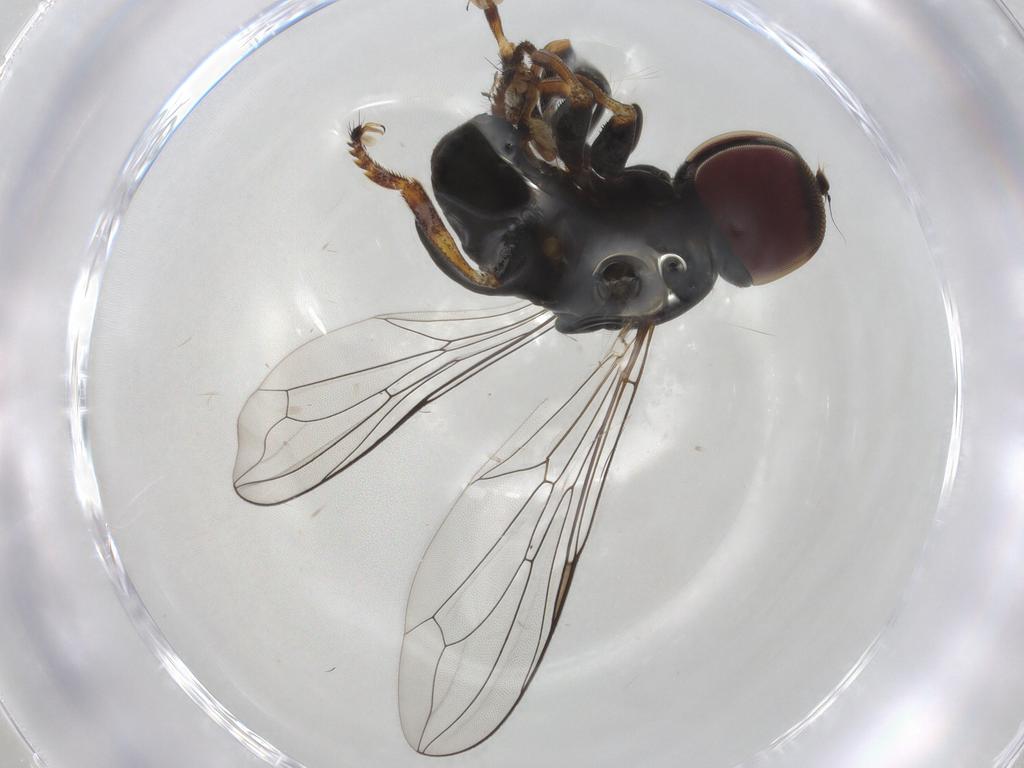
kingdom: Animalia
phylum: Arthropoda
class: Insecta
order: Diptera
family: Pipunculidae
